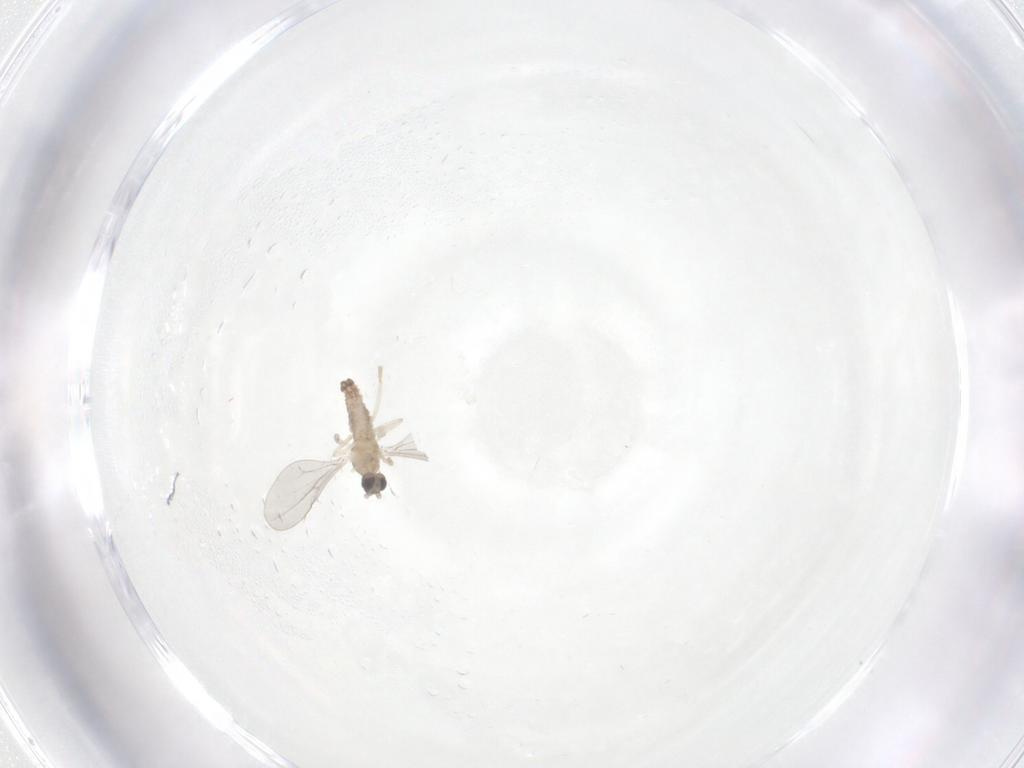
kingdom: Animalia
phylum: Arthropoda
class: Insecta
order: Diptera
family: Cecidomyiidae
